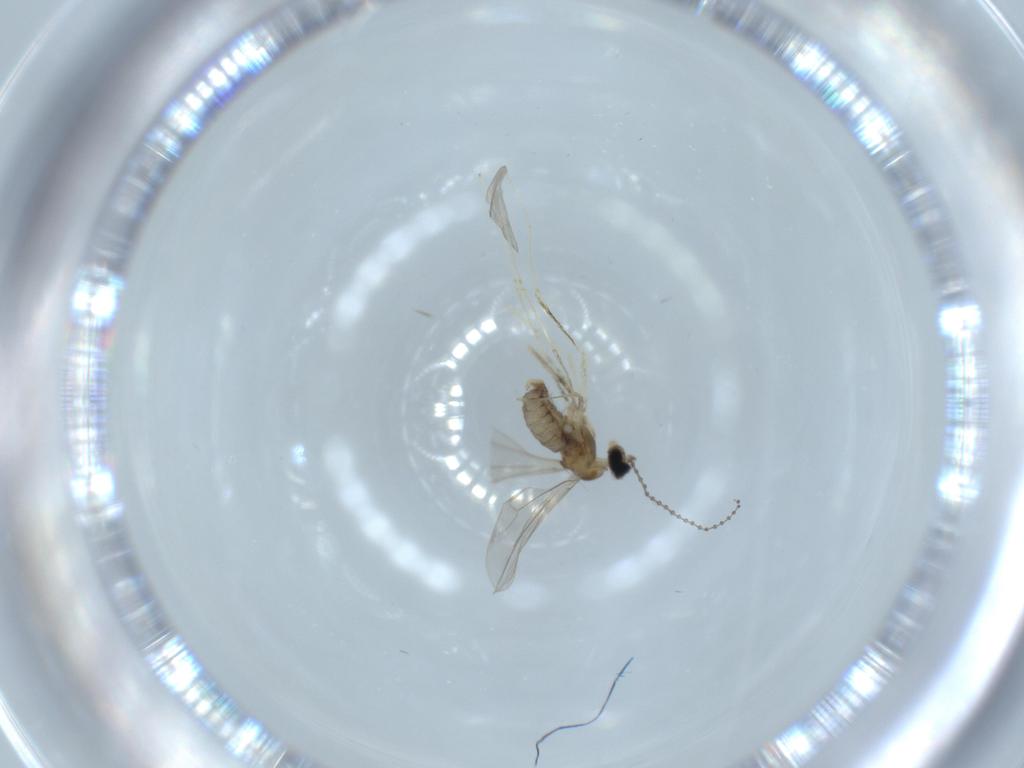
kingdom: Animalia
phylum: Arthropoda
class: Insecta
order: Diptera
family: Cecidomyiidae
